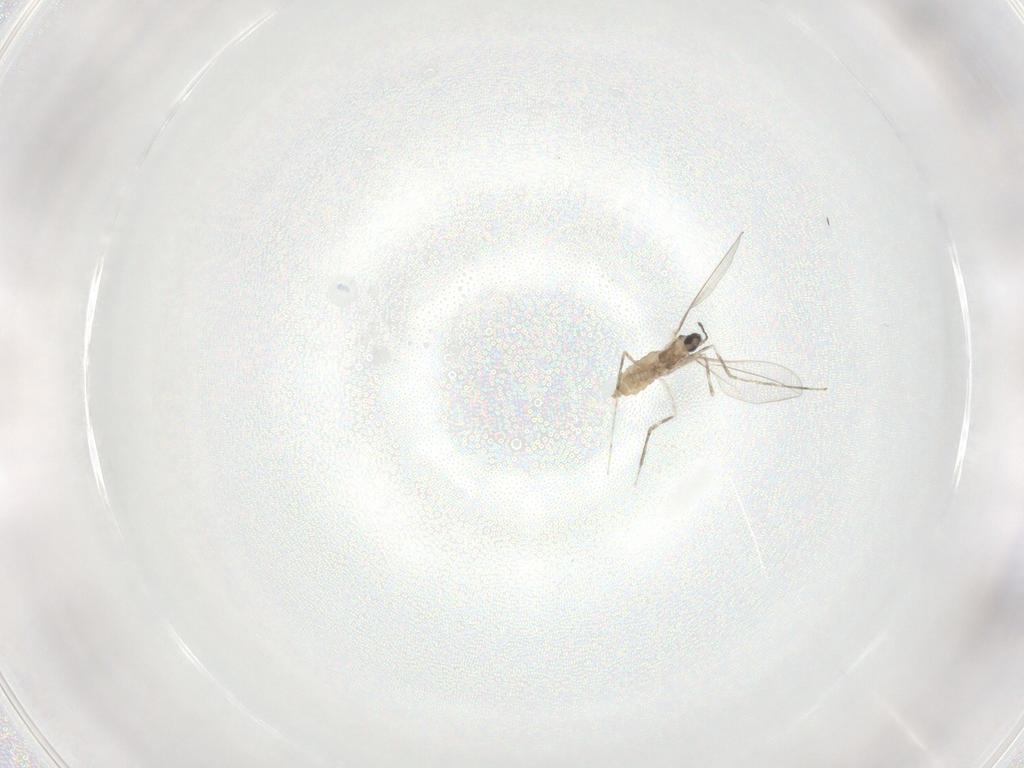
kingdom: Animalia
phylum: Arthropoda
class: Insecta
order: Diptera
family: Cecidomyiidae
